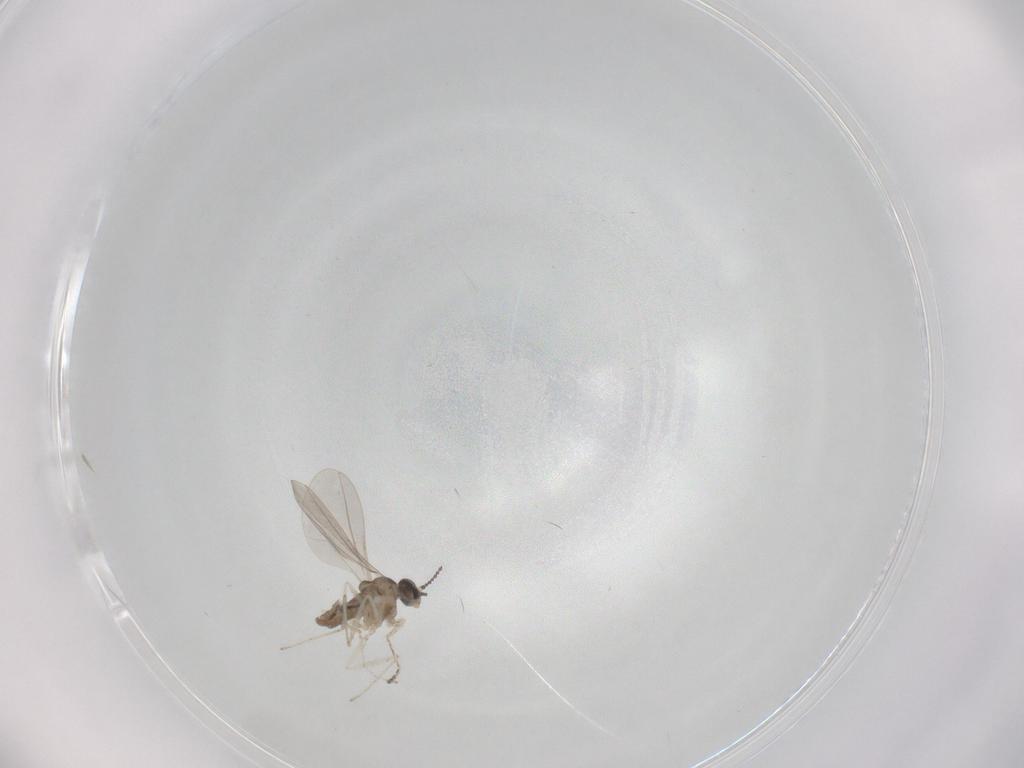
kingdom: Animalia
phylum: Arthropoda
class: Insecta
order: Diptera
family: Cecidomyiidae
